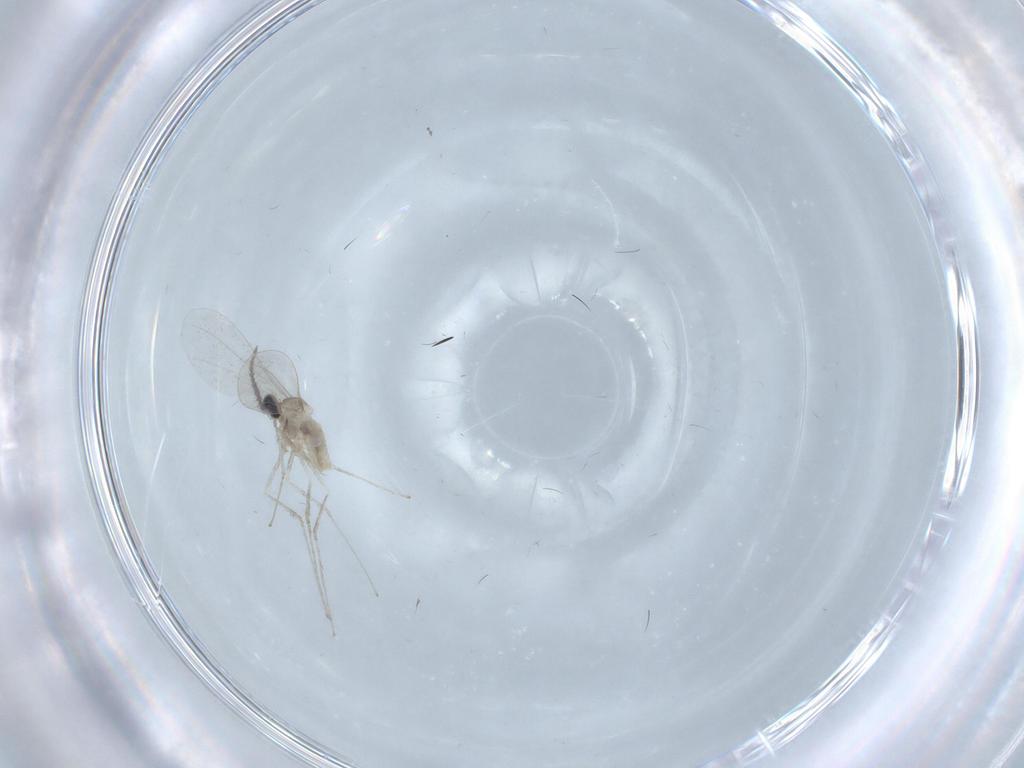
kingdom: Animalia
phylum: Arthropoda
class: Insecta
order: Diptera
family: Cecidomyiidae
